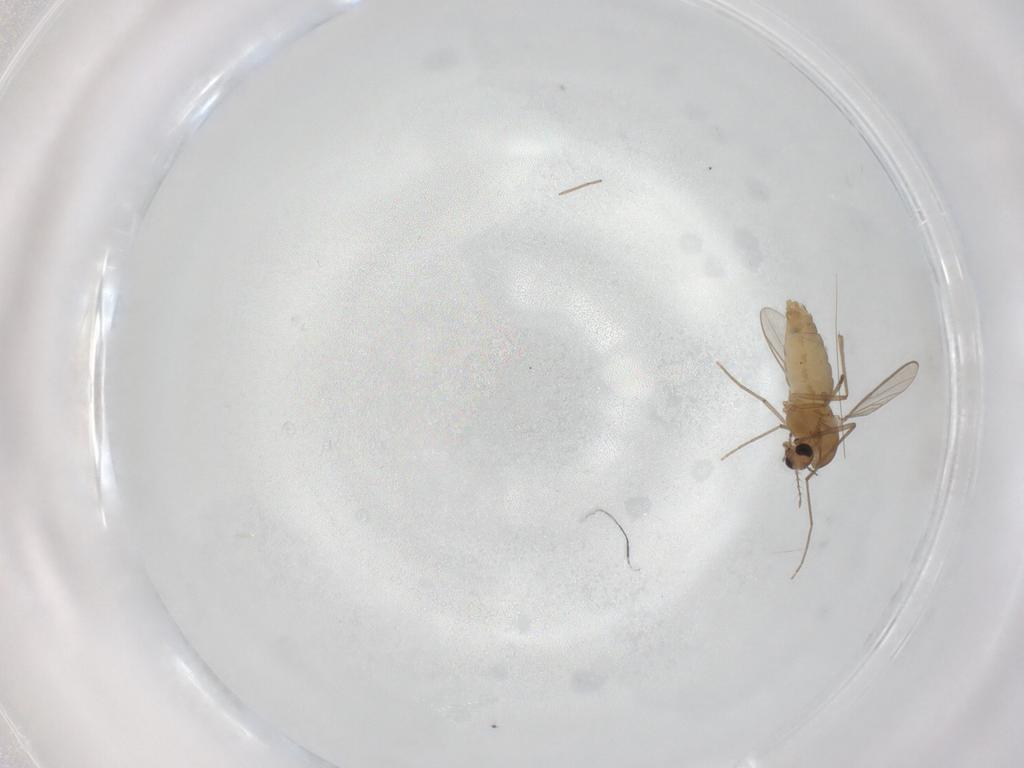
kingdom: Animalia
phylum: Arthropoda
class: Insecta
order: Diptera
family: Chironomidae
